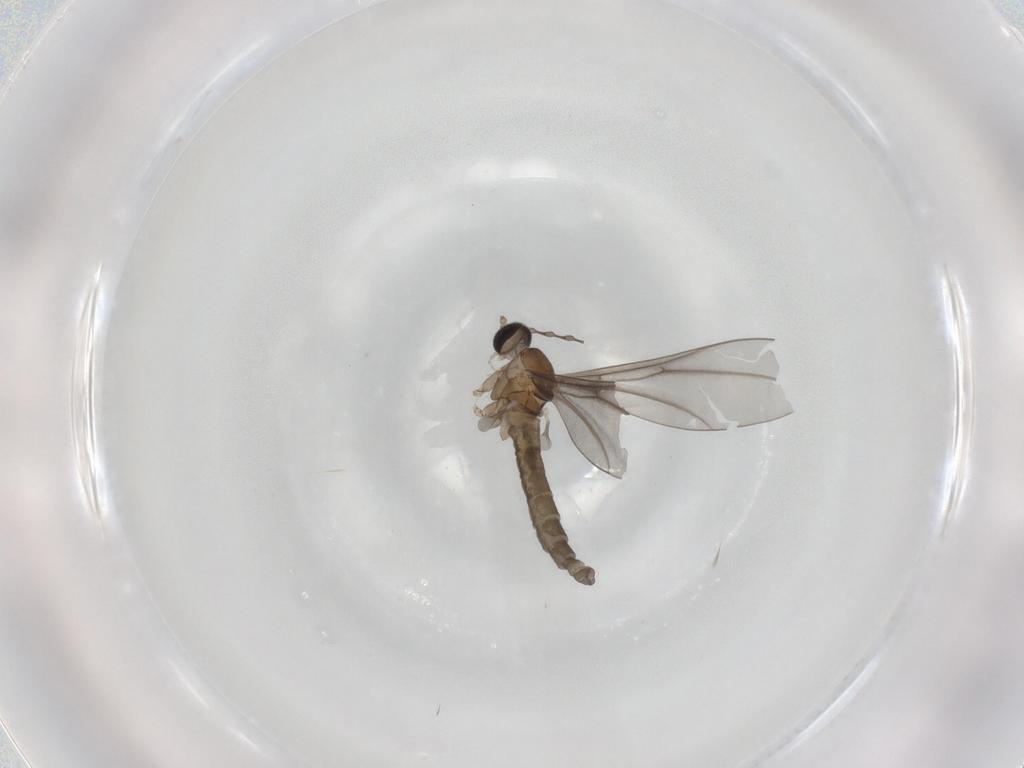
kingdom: Animalia
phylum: Arthropoda
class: Insecta
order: Diptera
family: Cecidomyiidae
